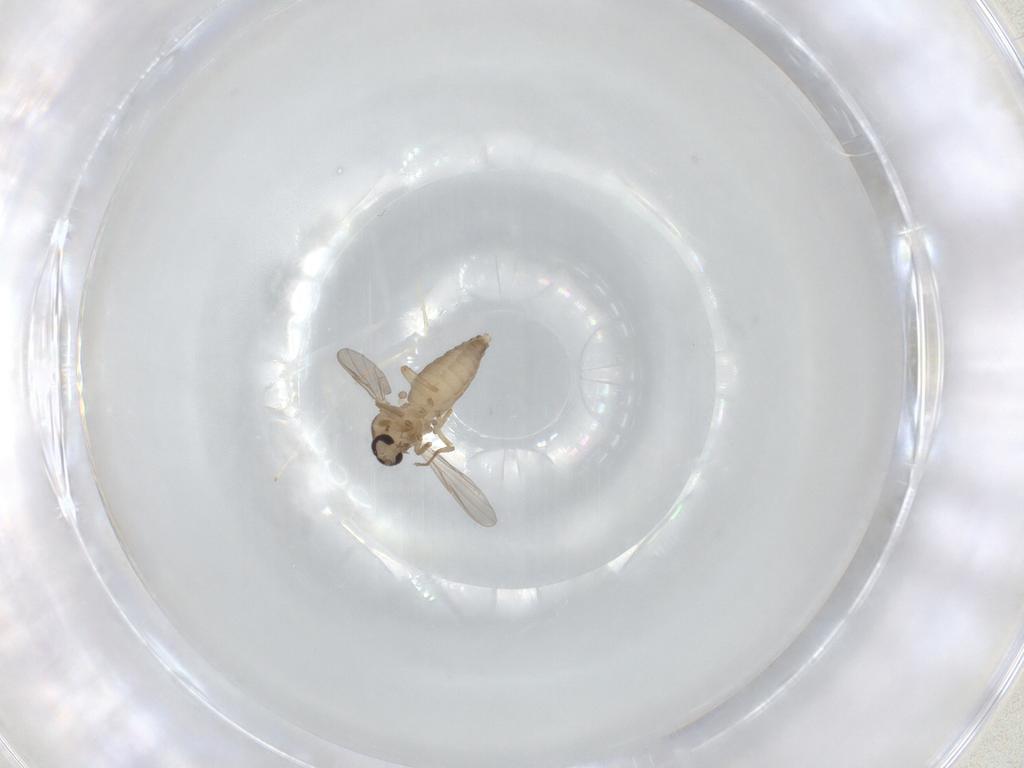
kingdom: Animalia
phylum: Arthropoda
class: Insecta
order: Diptera
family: Ceratopogonidae
